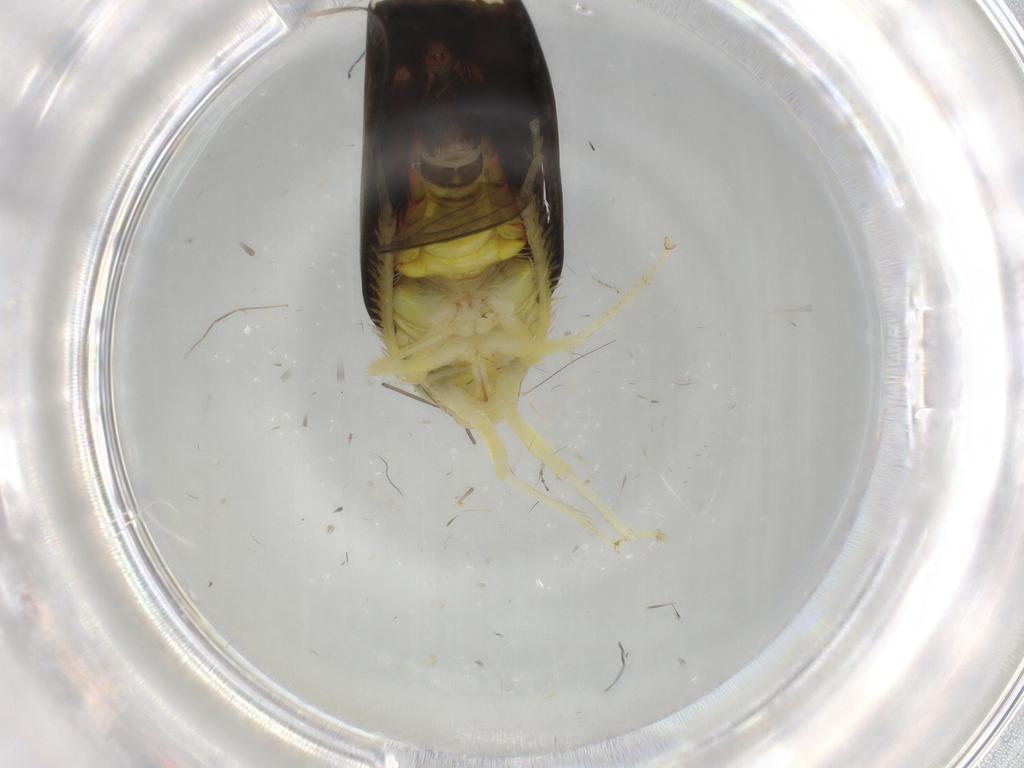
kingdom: Animalia
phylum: Arthropoda
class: Insecta
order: Hemiptera
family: Cicadellidae
